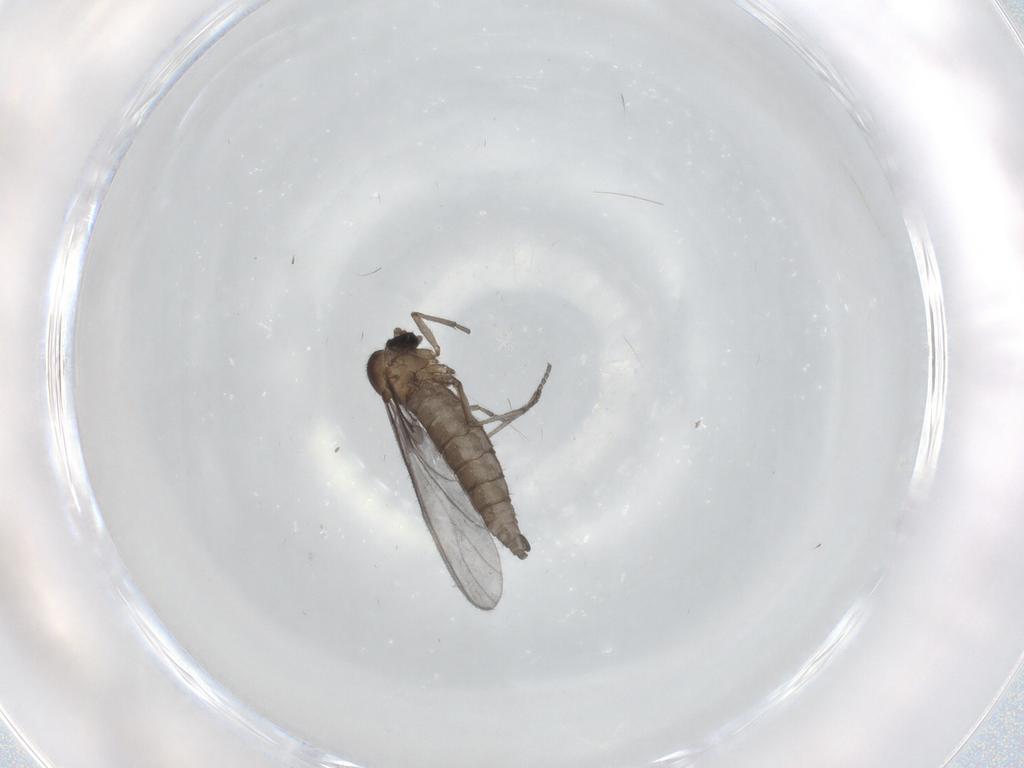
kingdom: Animalia
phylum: Arthropoda
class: Insecta
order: Diptera
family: Sciaridae
